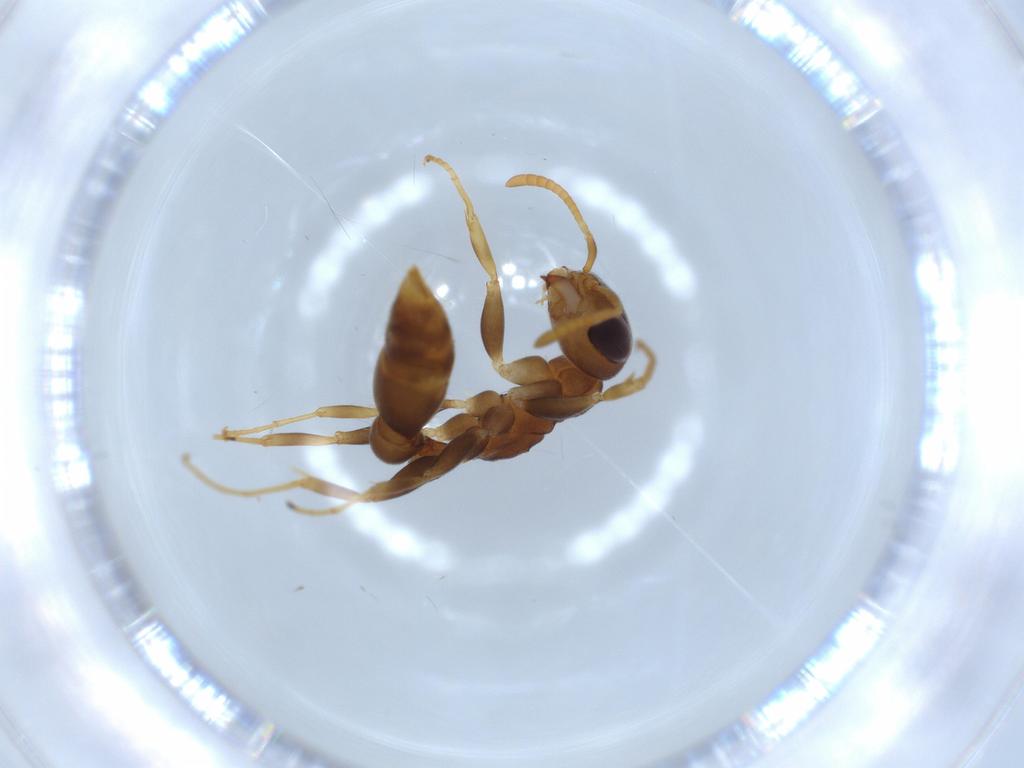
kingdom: Animalia
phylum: Arthropoda
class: Insecta
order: Hymenoptera
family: Formicidae
